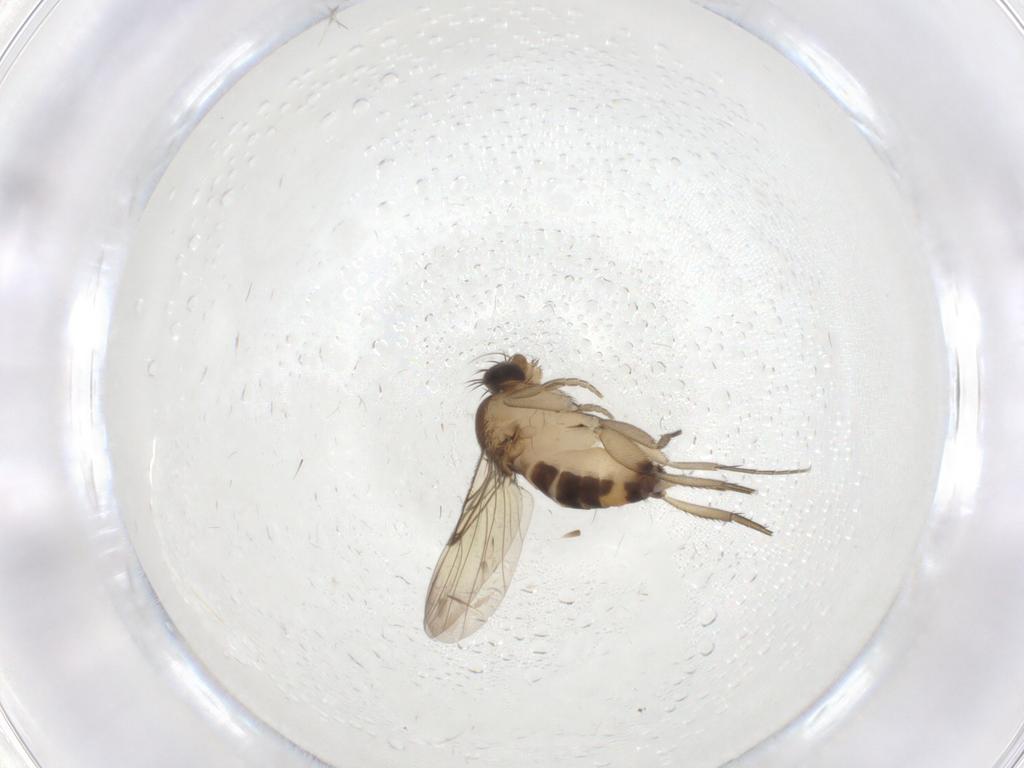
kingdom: Animalia
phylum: Arthropoda
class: Insecta
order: Diptera
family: Phoridae
